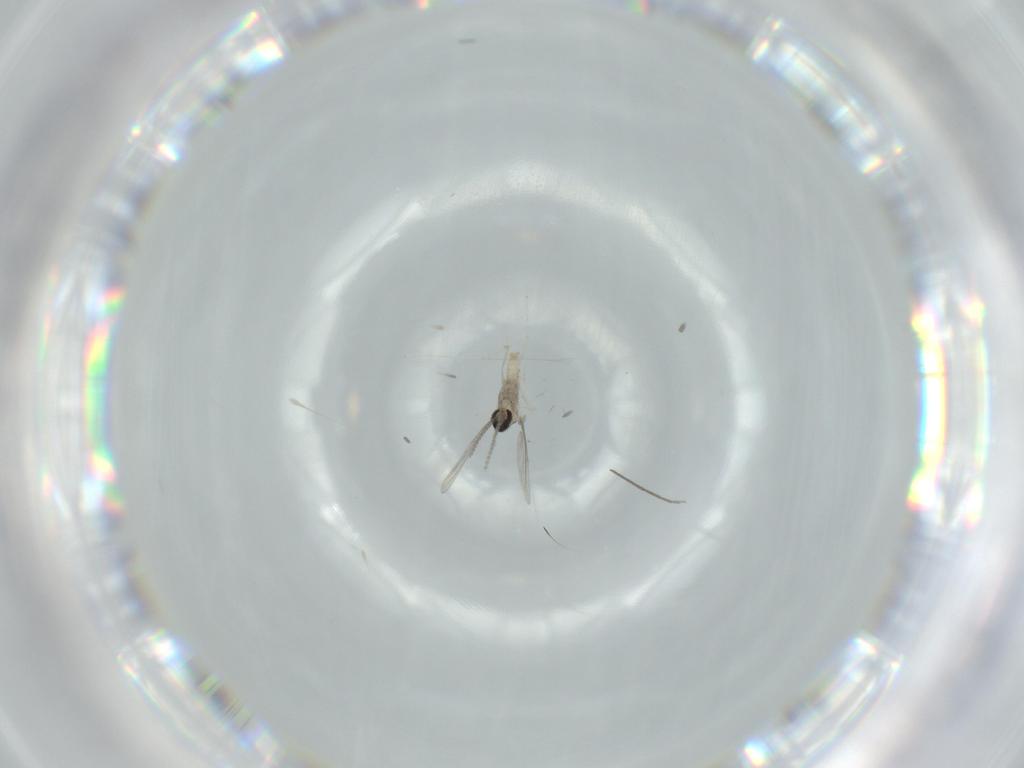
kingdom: Animalia
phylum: Arthropoda
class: Insecta
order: Diptera
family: Cecidomyiidae
